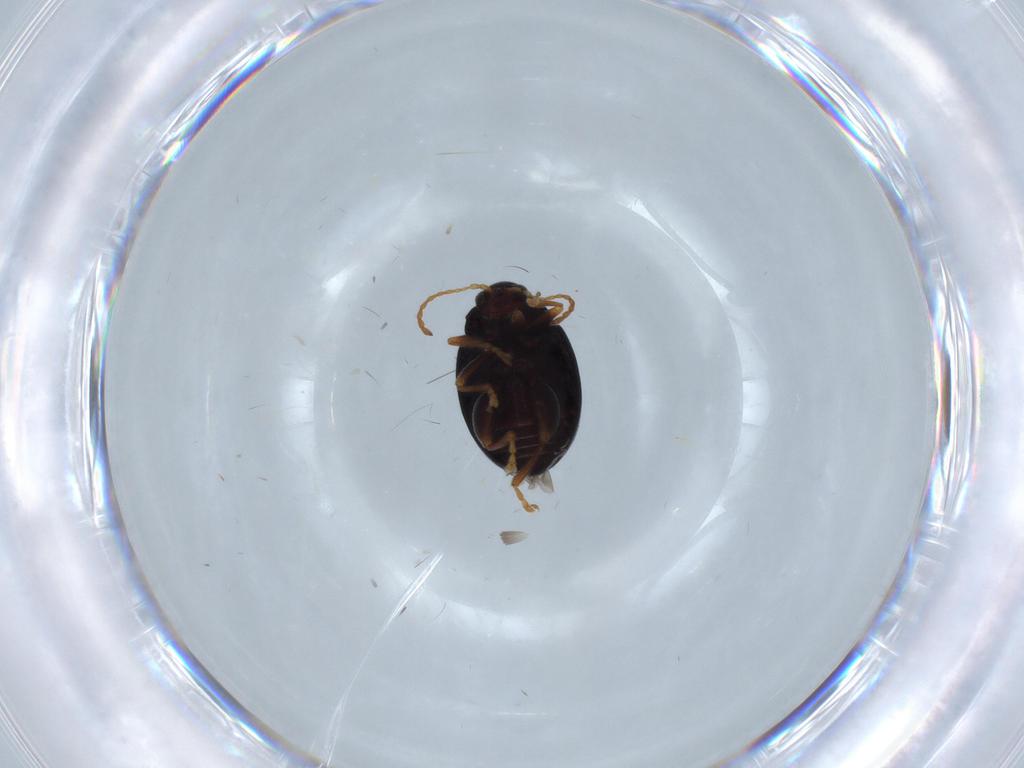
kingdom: Animalia
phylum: Arthropoda
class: Insecta
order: Coleoptera
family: Chrysomelidae
